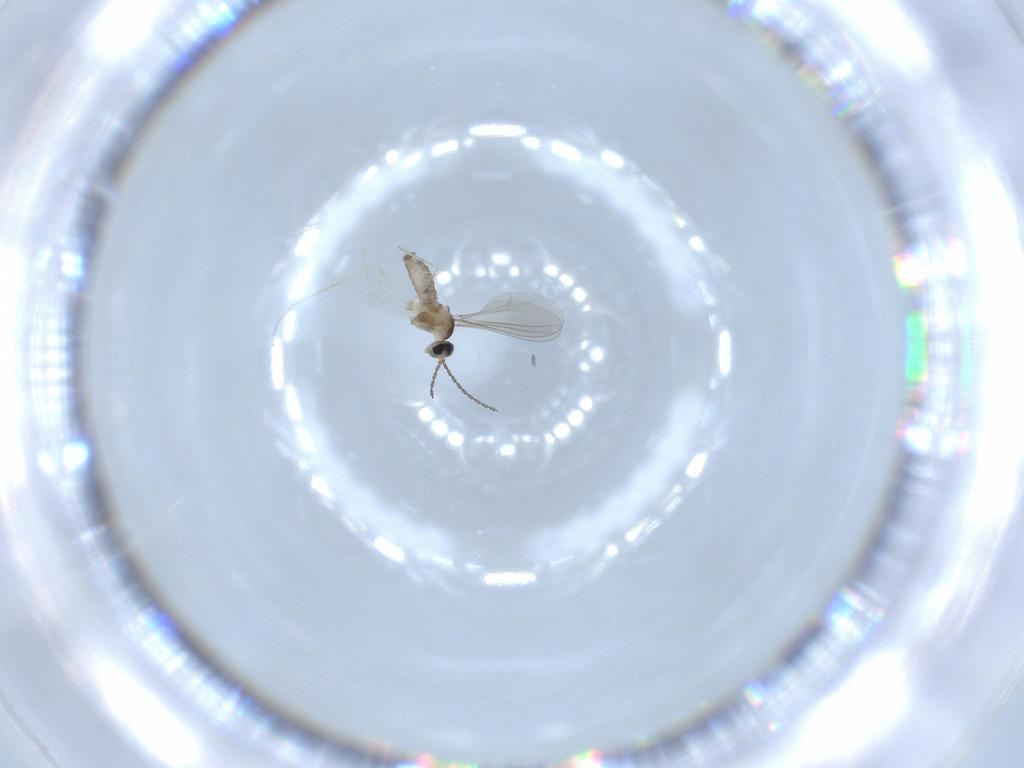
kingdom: Animalia
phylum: Arthropoda
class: Insecta
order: Diptera
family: Cecidomyiidae
